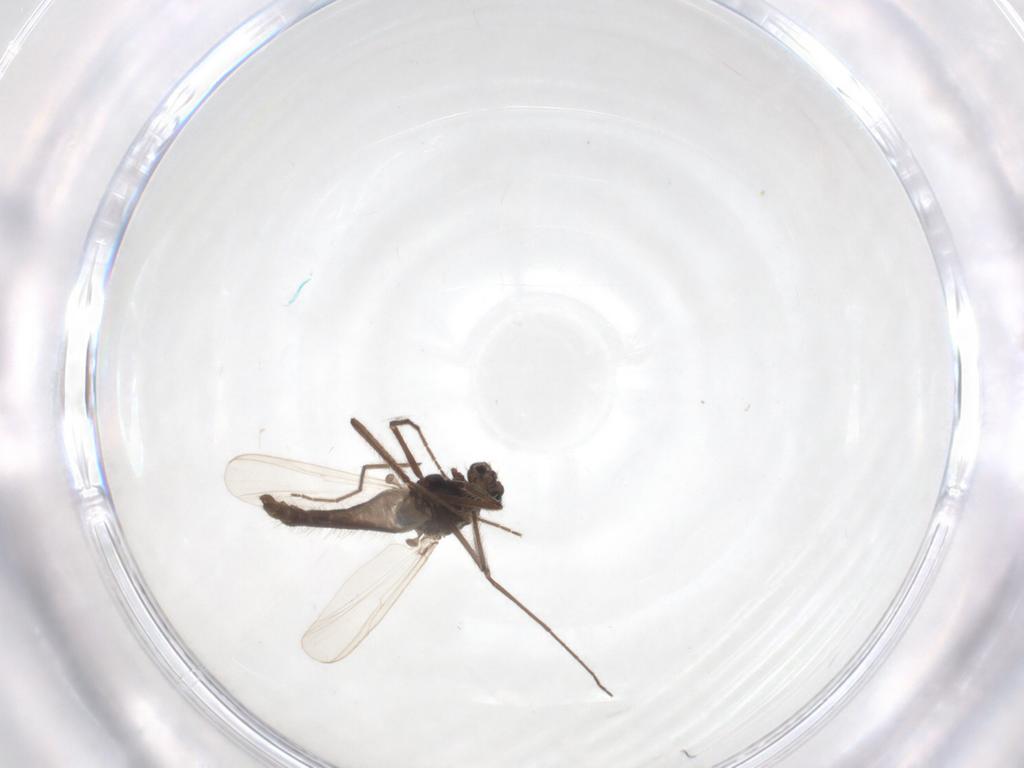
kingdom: Animalia
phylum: Arthropoda
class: Insecta
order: Diptera
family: Chironomidae
